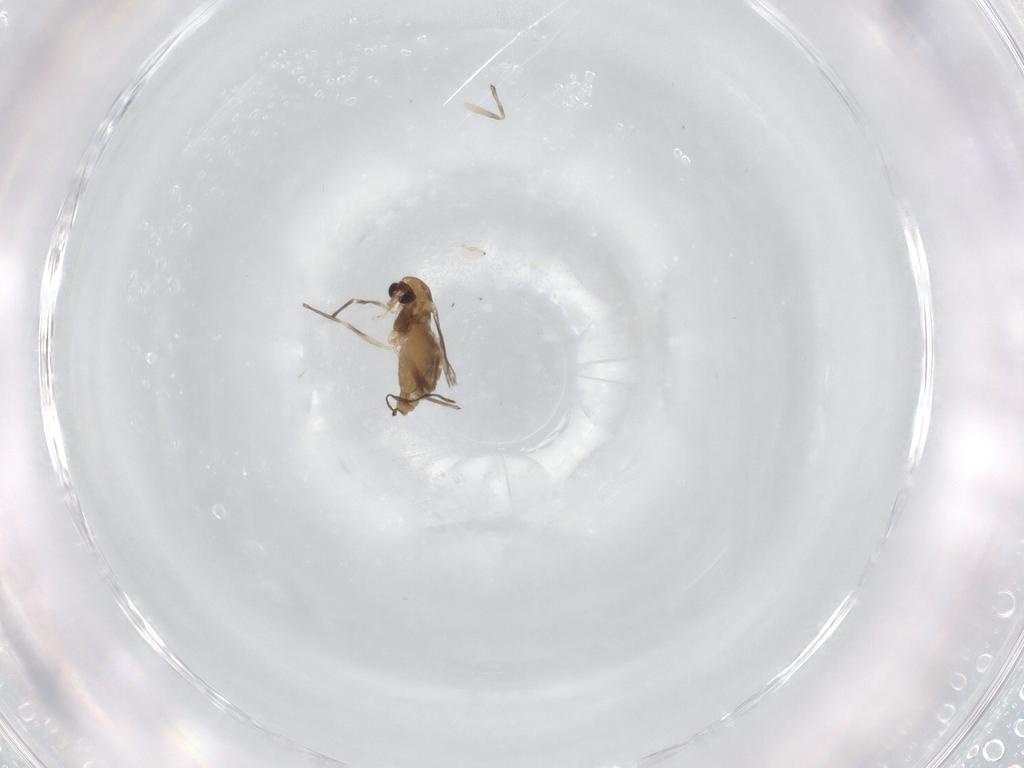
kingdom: Animalia
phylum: Arthropoda
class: Insecta
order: Diptera
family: Chironomidae
